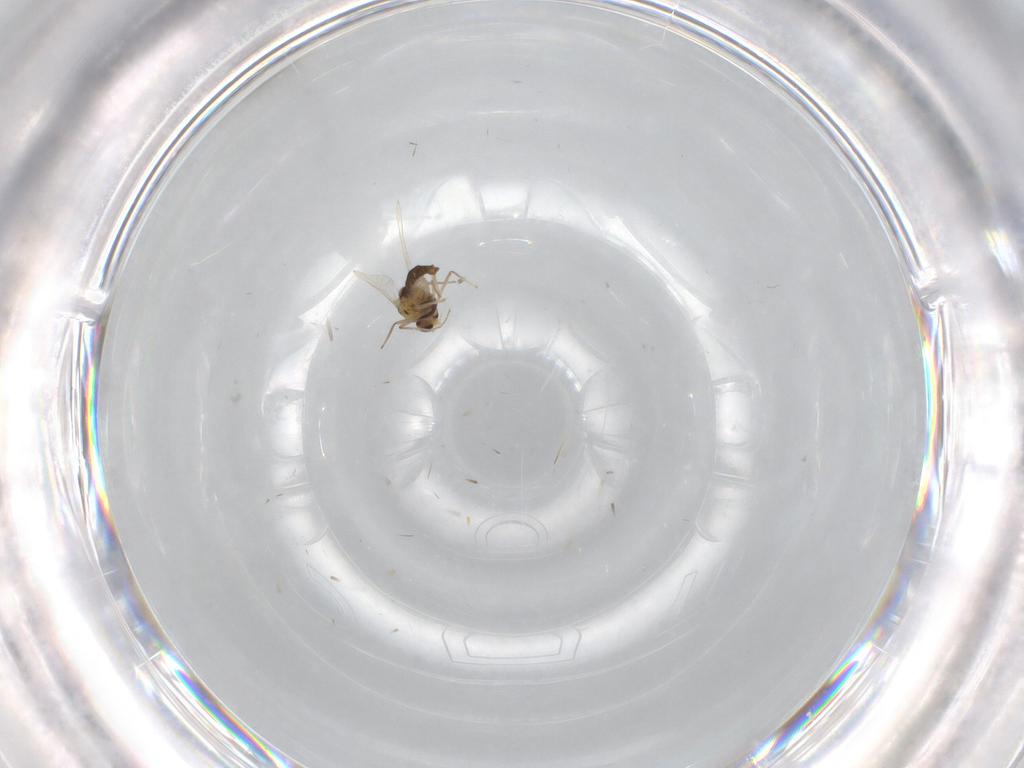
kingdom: Animalia
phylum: Arthropoda
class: Insecta
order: Diptera
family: Chironomidae
